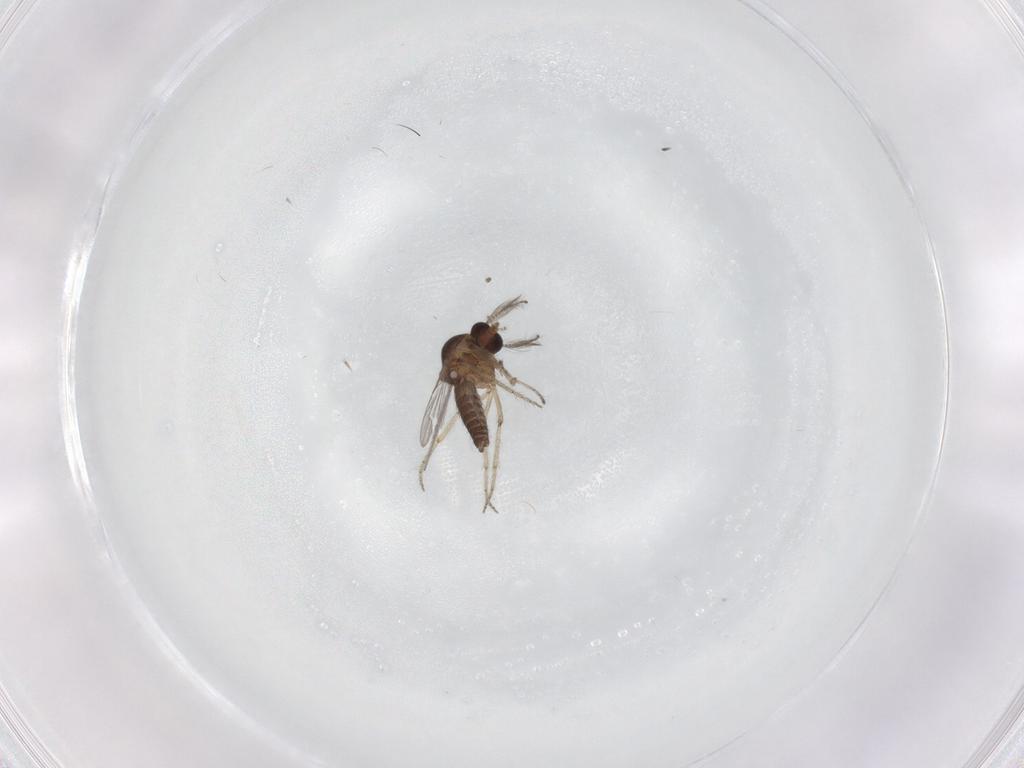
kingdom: Animalia
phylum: Arthropoda
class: Insecta
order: Diptera
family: Ceratopogonidae
